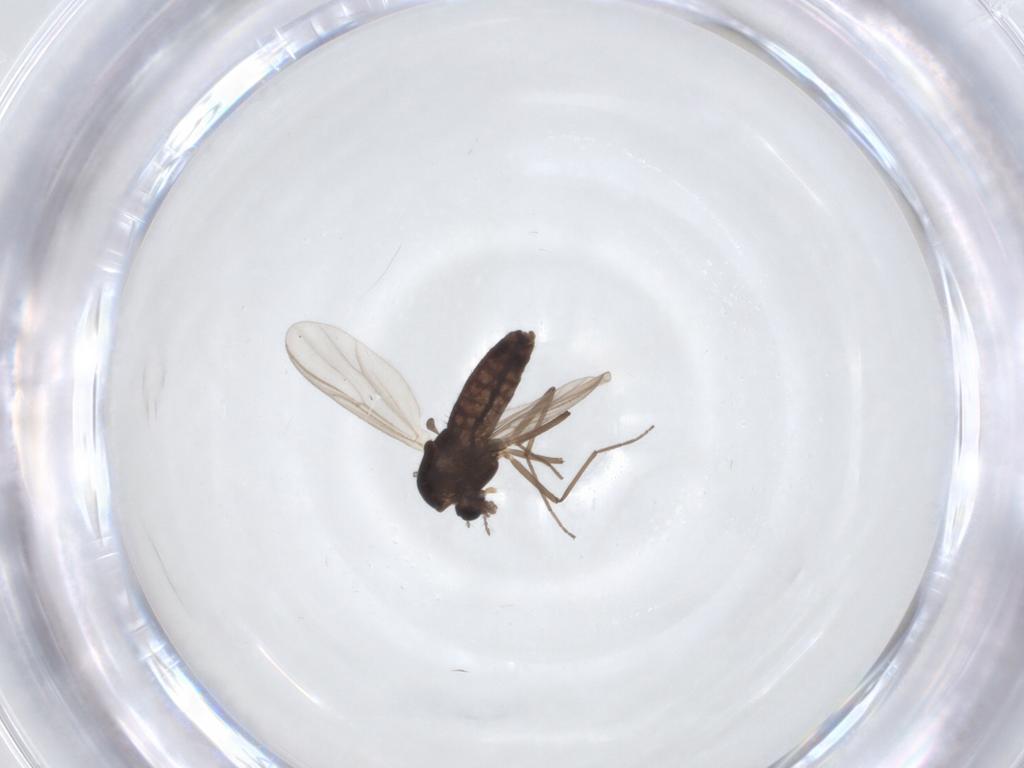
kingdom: Animalia
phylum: Arthropoda
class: Insecta
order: Diptera
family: Chironomidae
